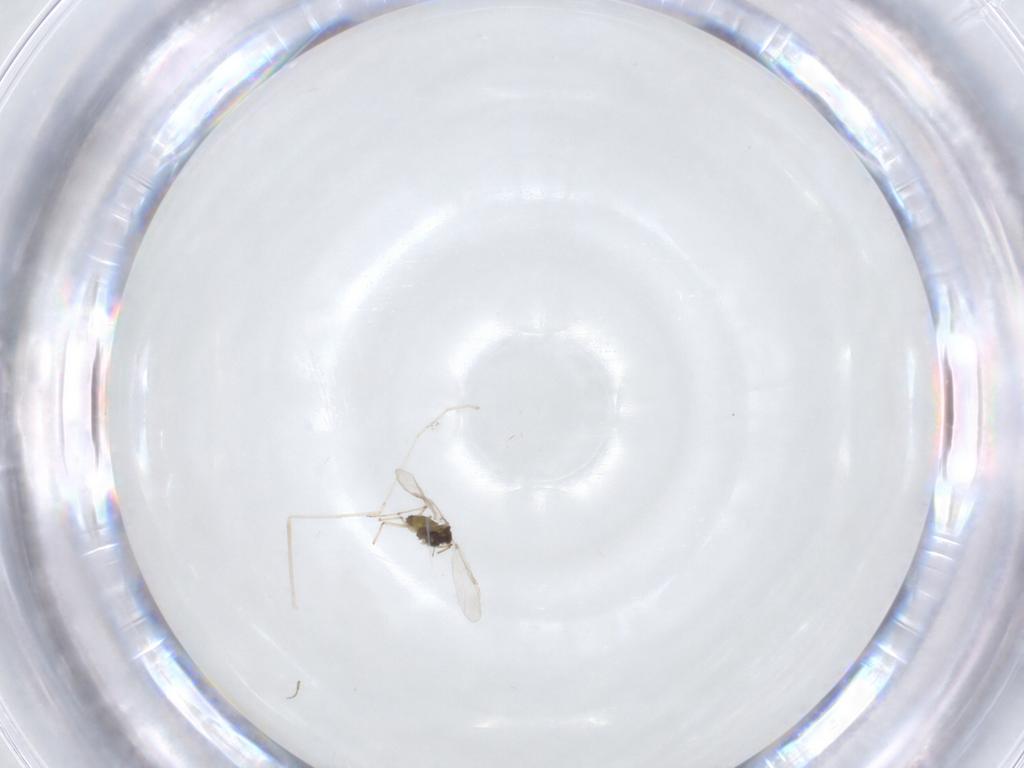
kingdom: Animalia
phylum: Arthropoda
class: Insecta
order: Diptera
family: Chironomidae
